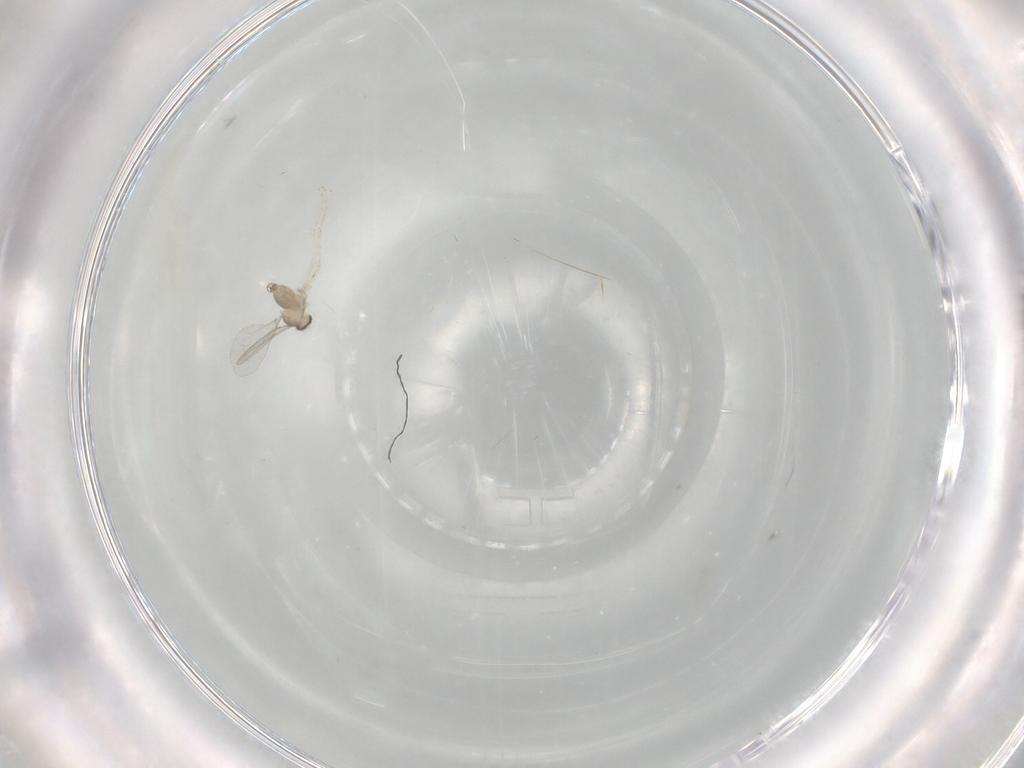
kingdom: Animalia
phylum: Arthropoda
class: Insecta
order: Diptera
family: Cecidomyiidae
